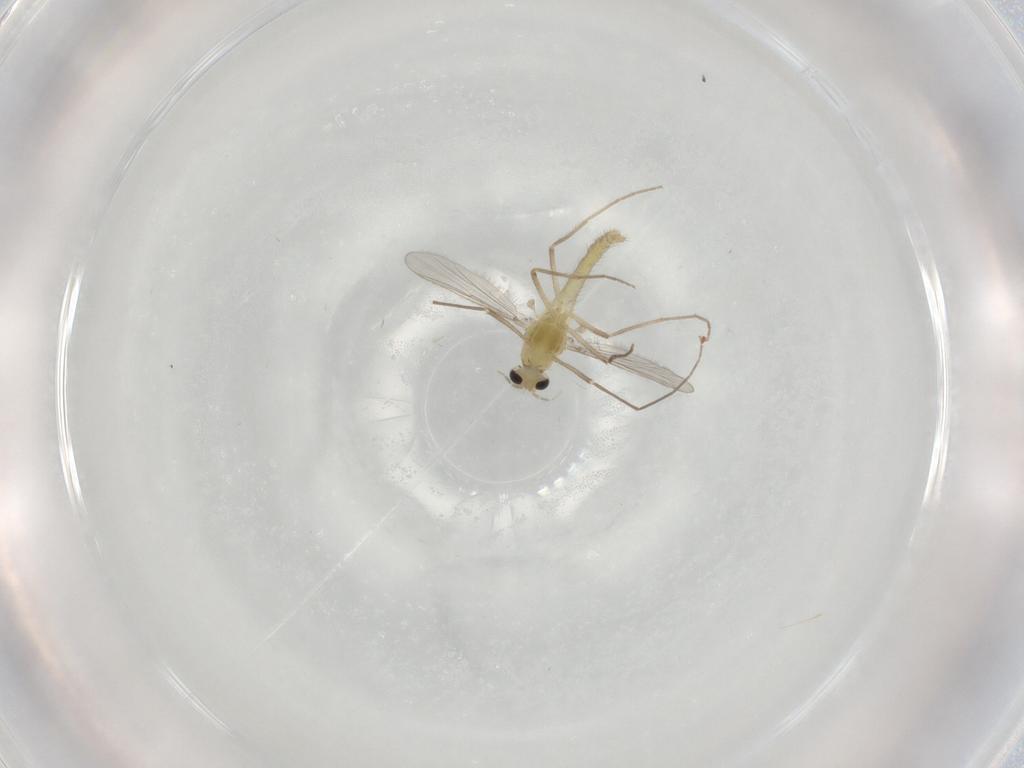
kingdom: Animalia
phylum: Arthropoda
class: Insecta
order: Diptera
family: Chironomidae
